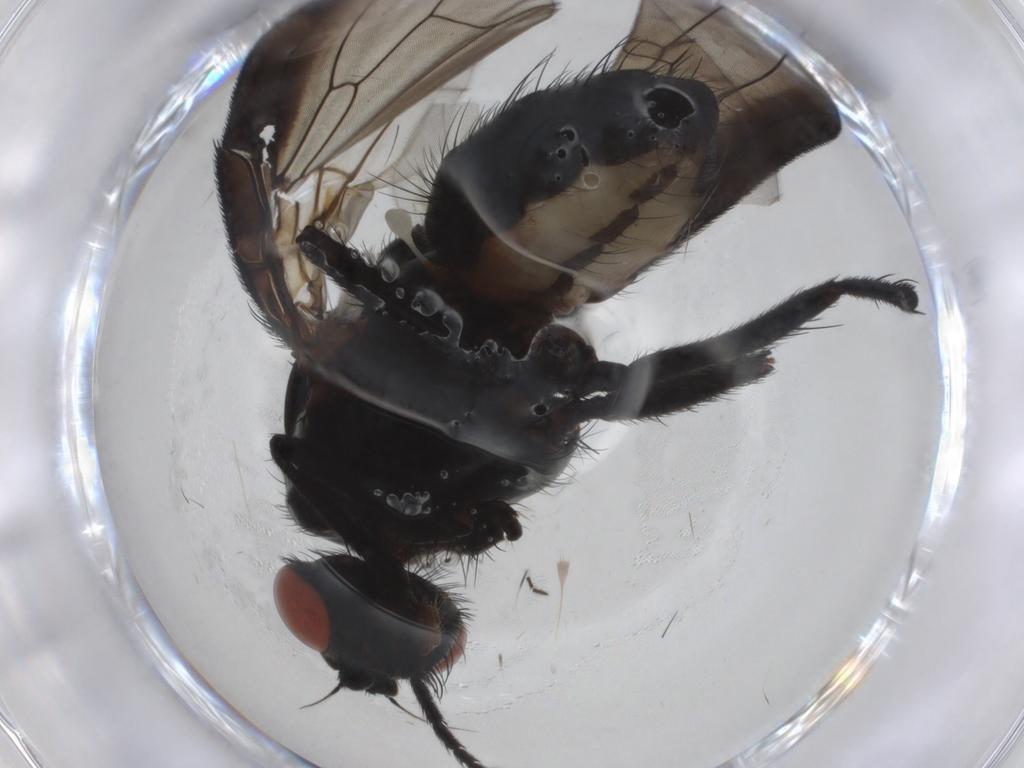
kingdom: Animalia
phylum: Arthropoda
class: Insecta
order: Diptera
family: Anthomyiidae
